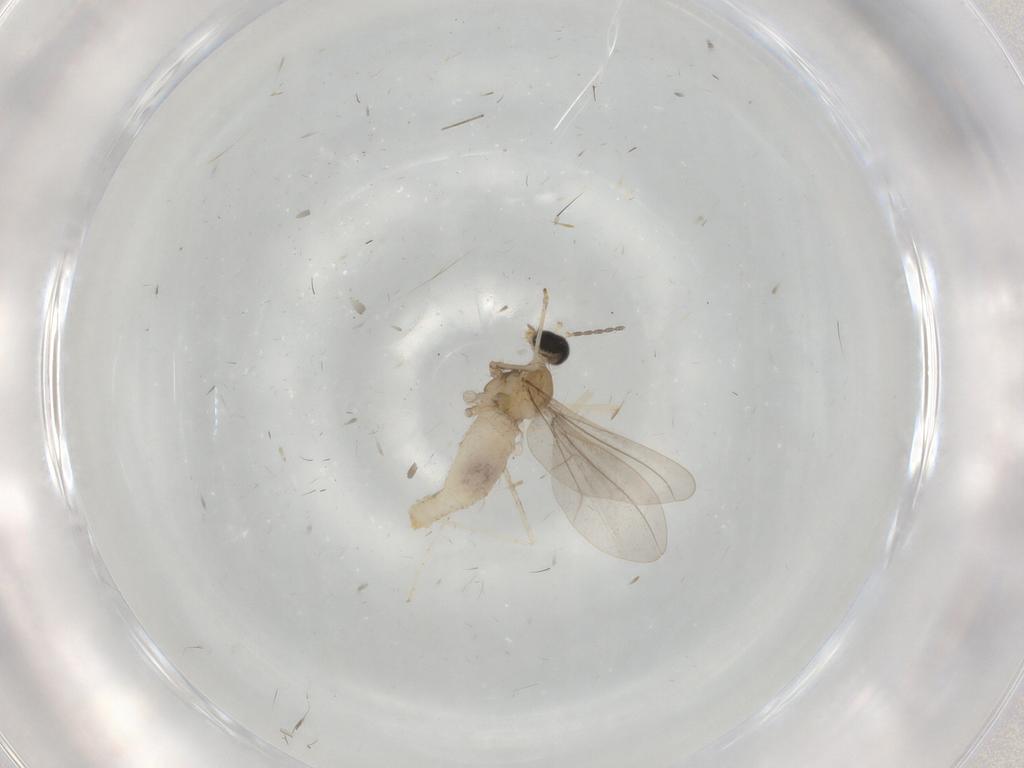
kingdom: Animalia
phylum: Arthropoda
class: Insecta
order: Diptera
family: Cecidomyiidae
